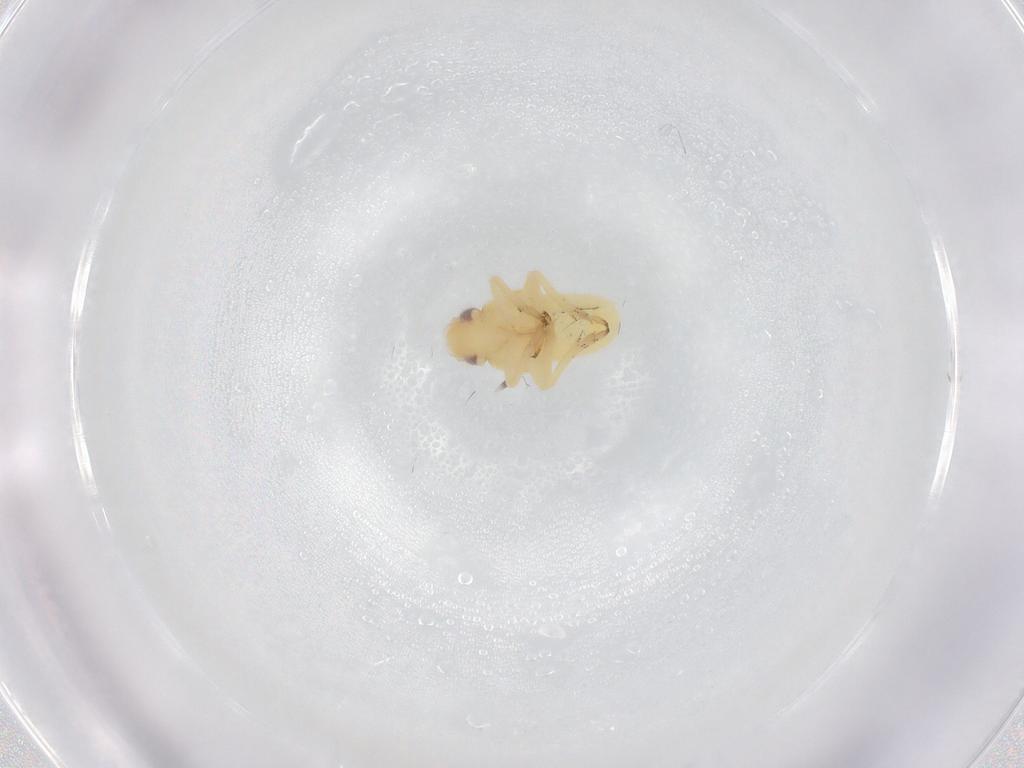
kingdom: Animalia
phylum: Arthropoda
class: Insecta
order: Hemiptera
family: Caliscelidae
